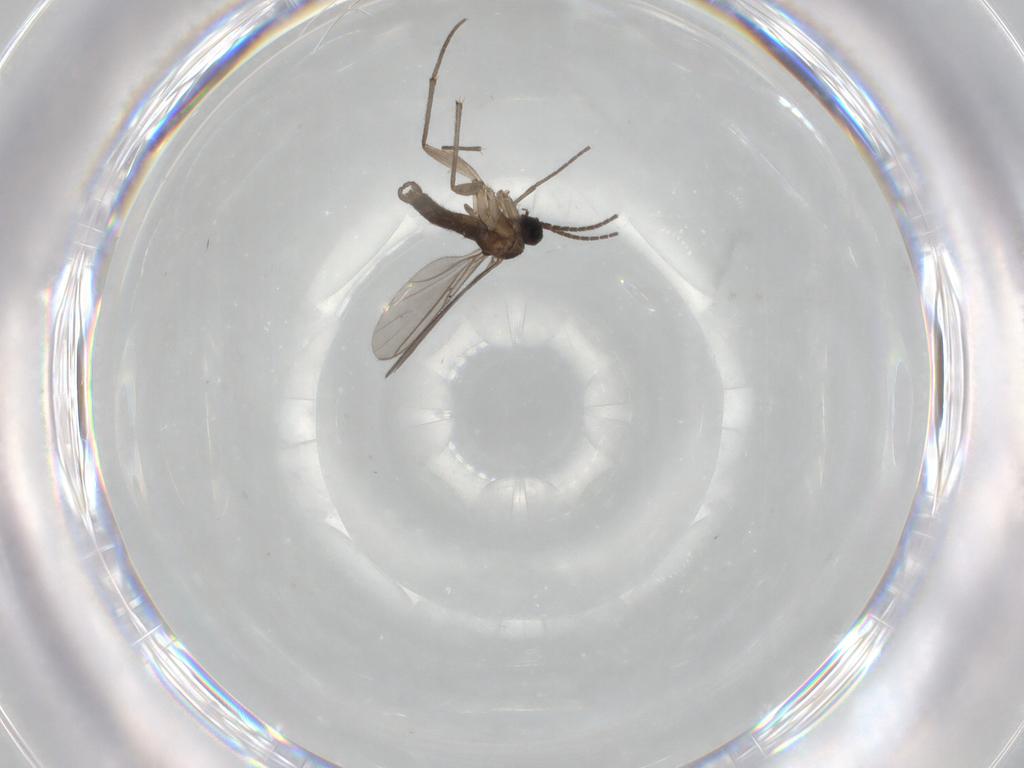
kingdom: Animalia
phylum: Arthropoda
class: Insecta
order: Diptera
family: Sciaridae
